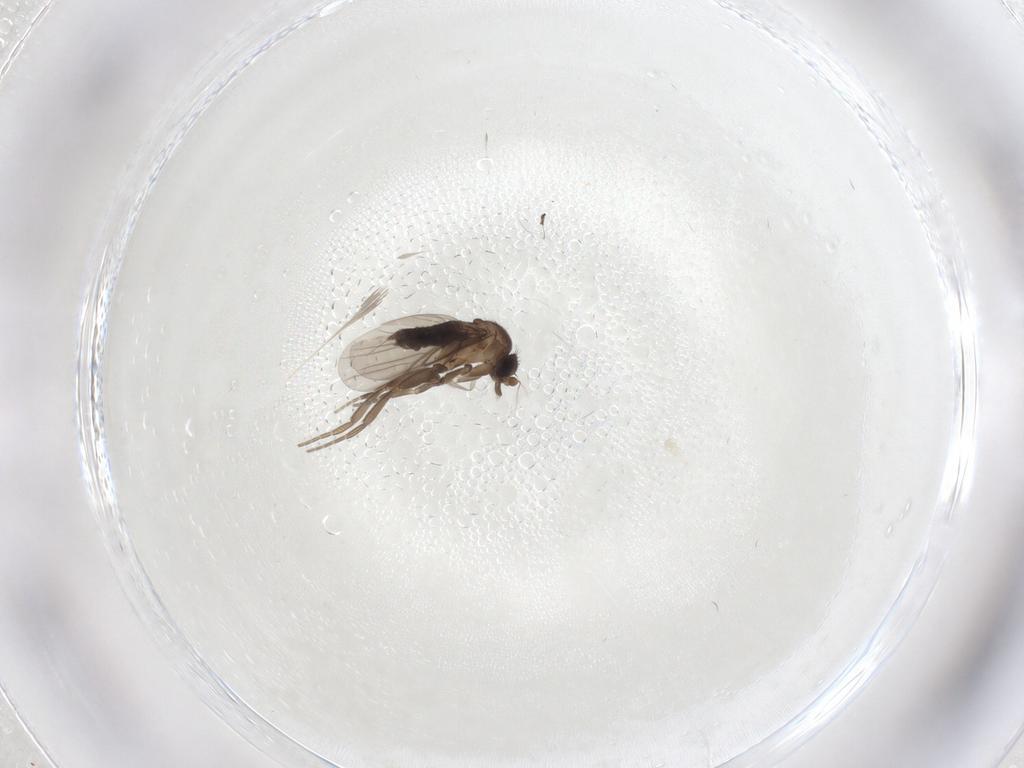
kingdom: Animalia
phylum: Arthropoda
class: Insecta
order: Diptera
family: Psychodidae
